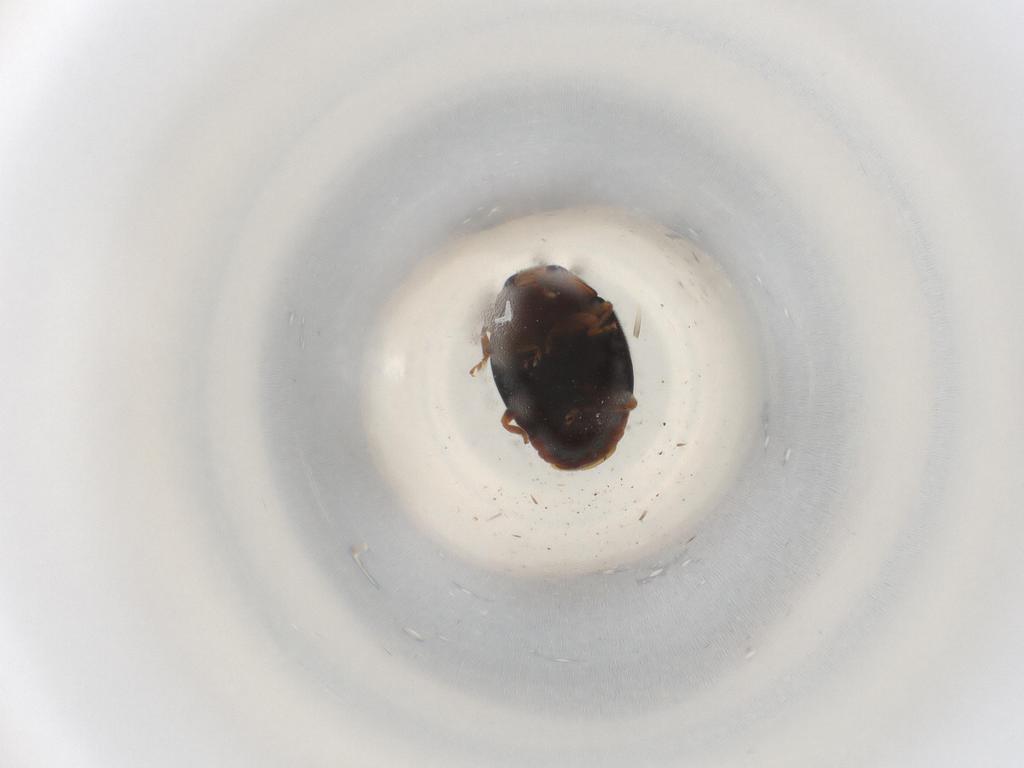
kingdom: Animalia
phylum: Arthropoda
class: Insecta
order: Coleoptera
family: Coccinellidae
